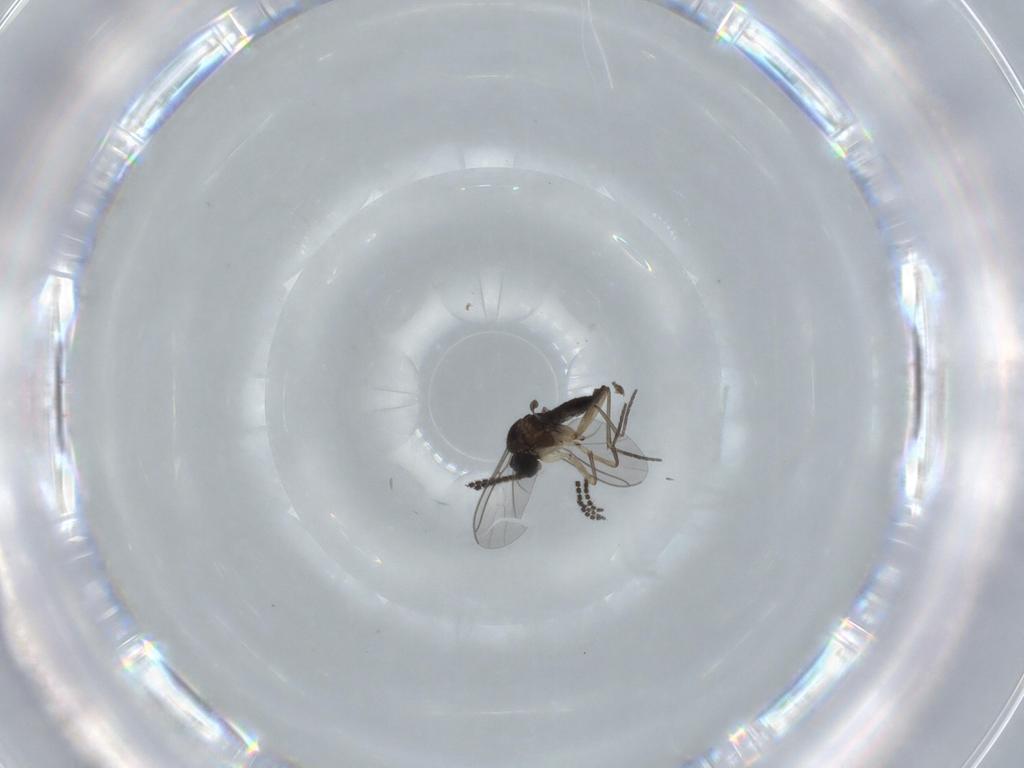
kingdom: Animalia
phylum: Arthropoda
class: Insecta
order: Diptera
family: Sciaridae
